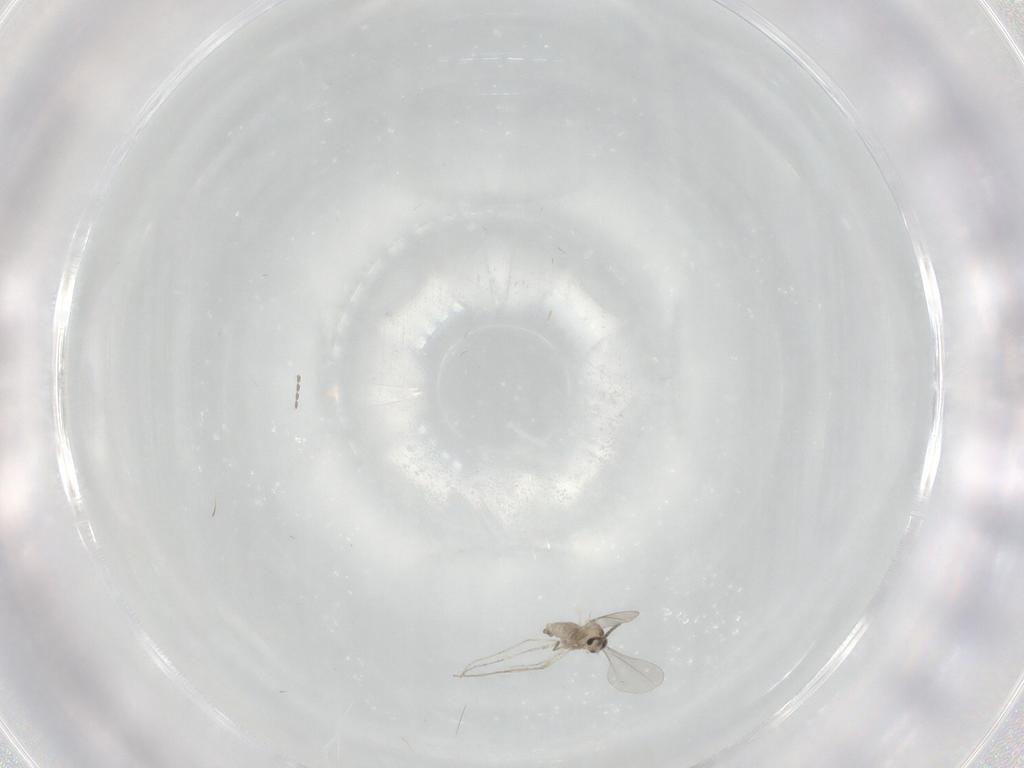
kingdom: Animalia
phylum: Arthropoda
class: Insecta
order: Diptera
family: Cecidomyiidae
